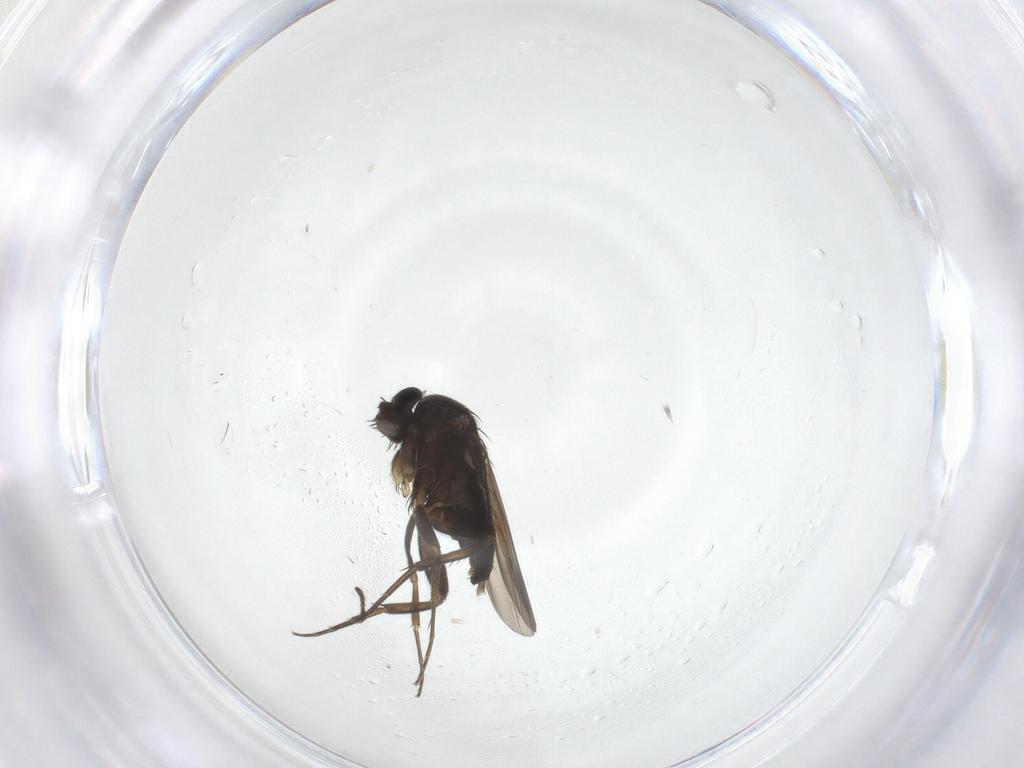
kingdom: Animalia
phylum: Arthropoda
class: Insecta
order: Diptera
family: Phoridae
